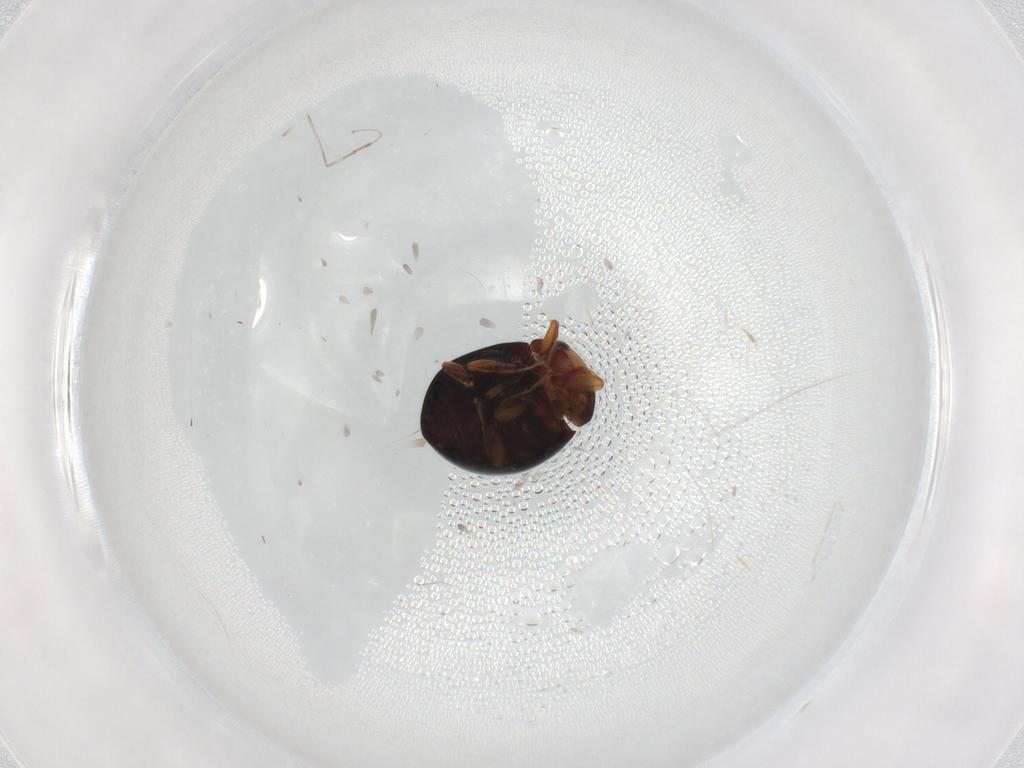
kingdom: Animalia
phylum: Arthropoda
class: Insecta
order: Coleoptera
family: Coccinellidae
